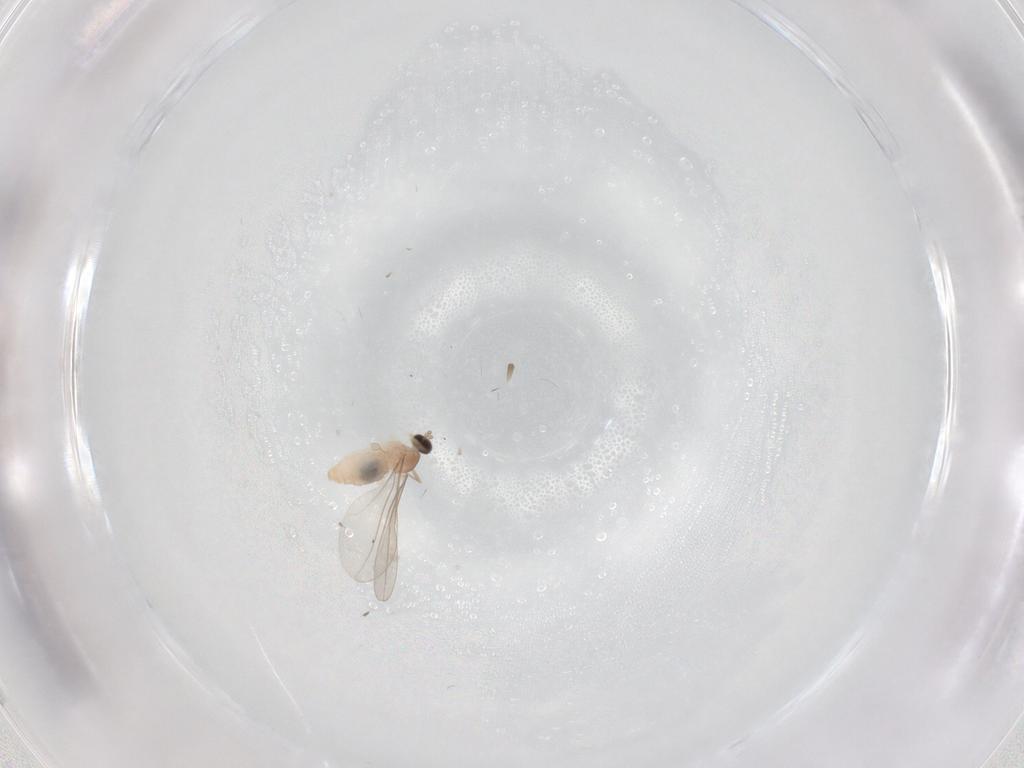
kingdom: Animalia
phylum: Arthropoda
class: Insecta
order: Diptera
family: Cecidomyiidae
